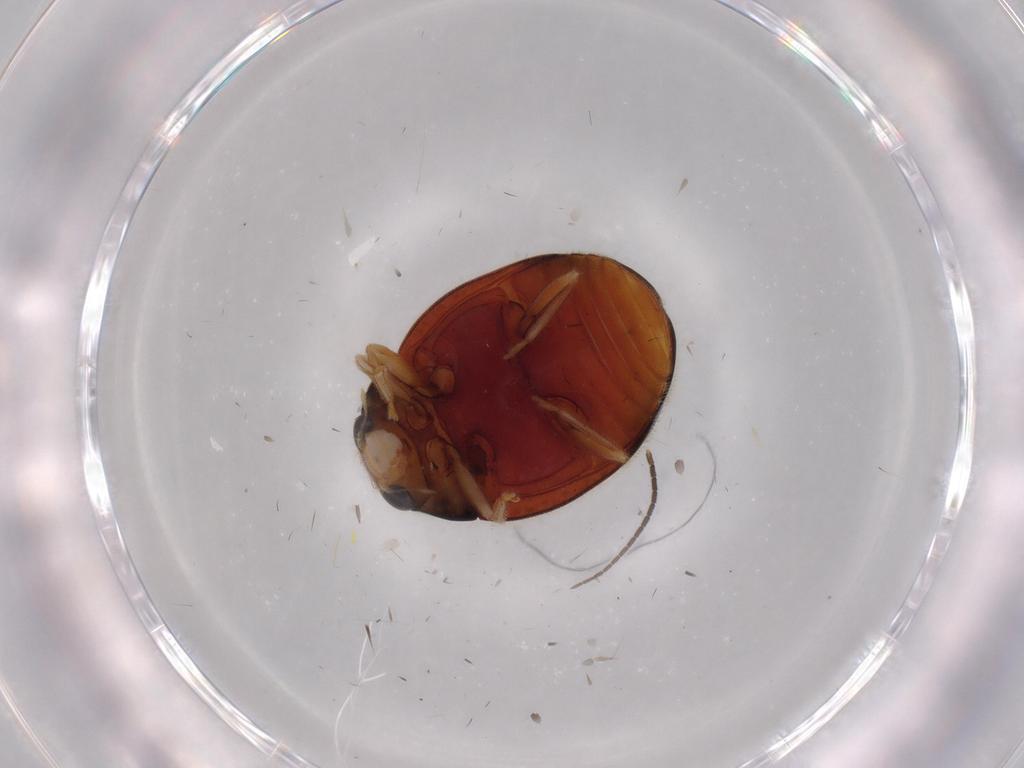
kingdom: Animalia
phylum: Arthropoda
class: Insecta
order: Coleoptera
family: Coccinellidae
